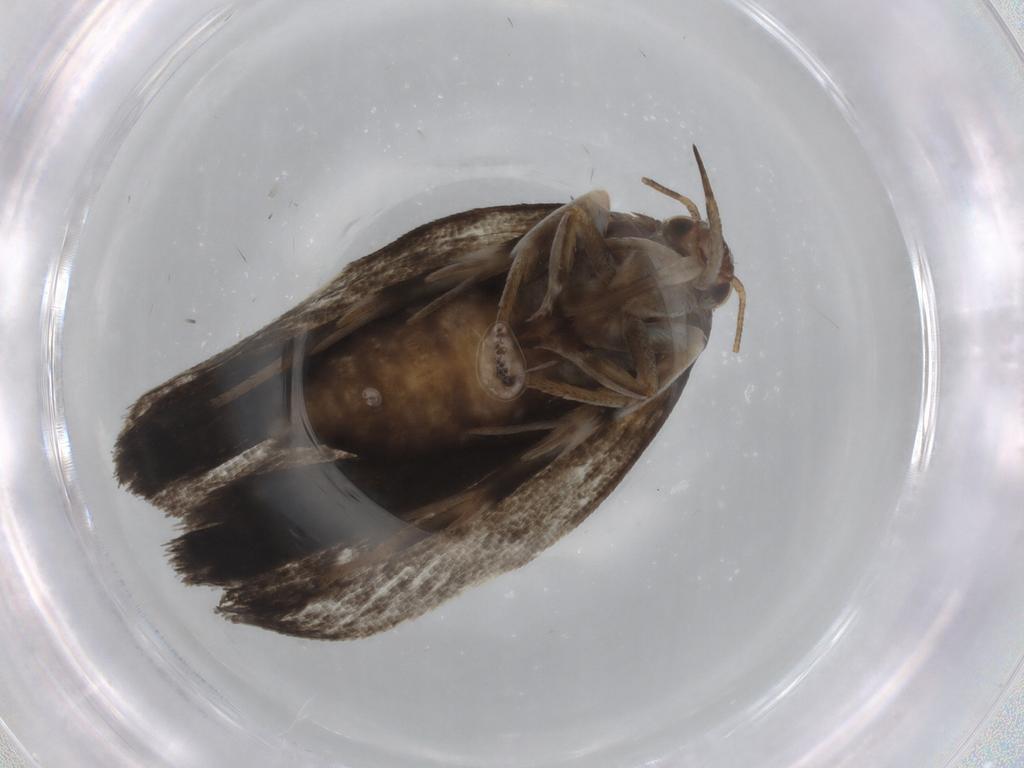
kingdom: Animalia
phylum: Arthropoda
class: Insecta
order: Lepidoptera
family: Depressariidae
